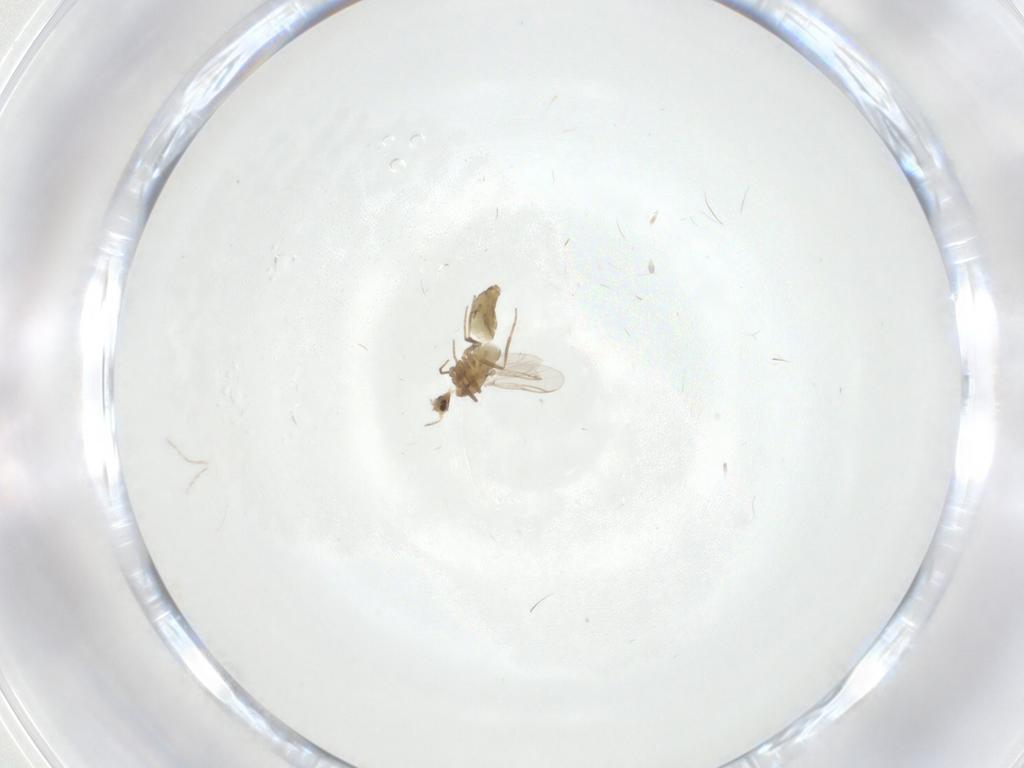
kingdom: Animalia
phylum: Arthropoda
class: Insecta
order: Diptera
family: Chironomidae
